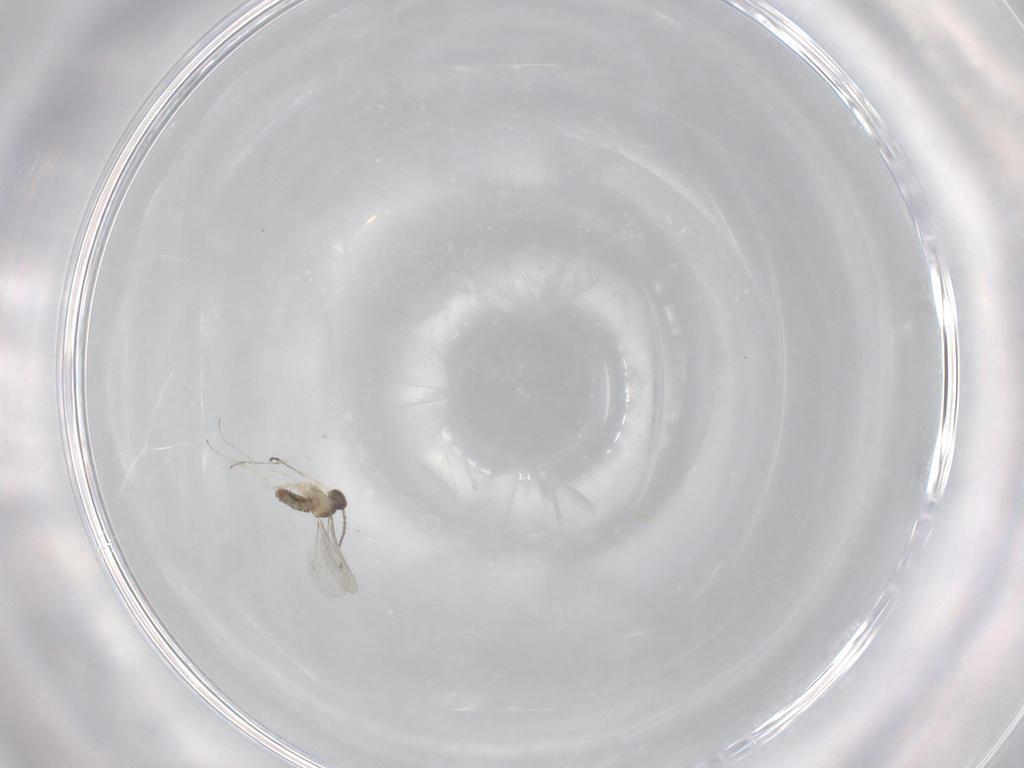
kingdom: Animalia
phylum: Arthropoda
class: Insecta
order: Diptera
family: Cecidomyiidae
